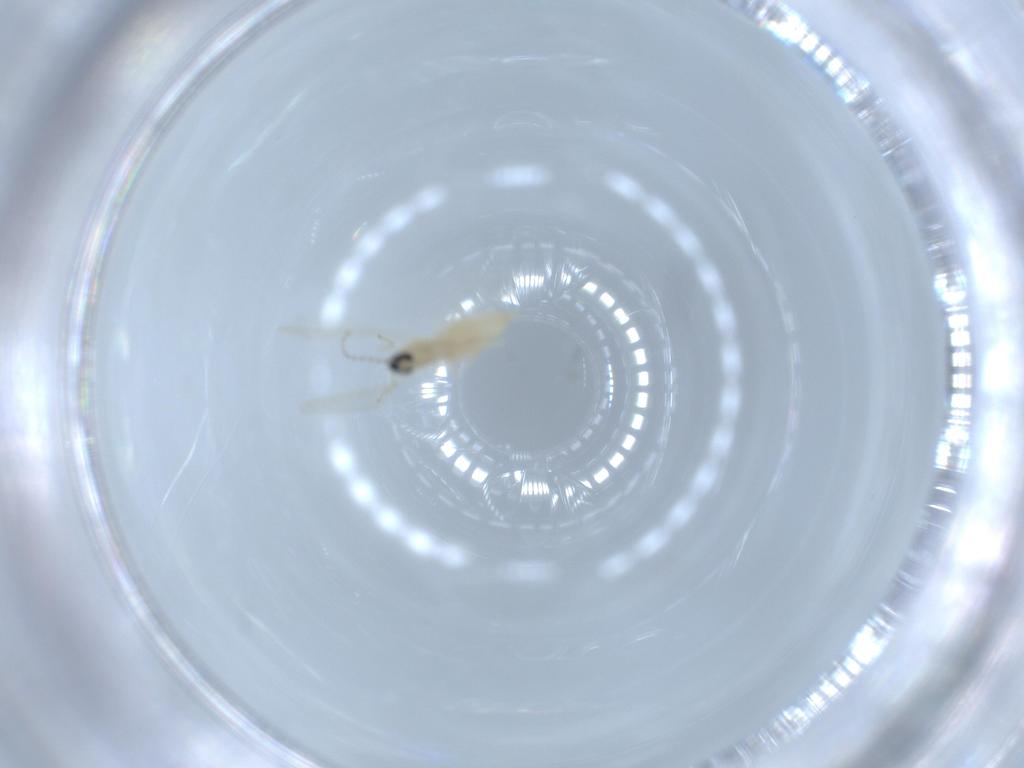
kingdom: Animalia
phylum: Arthropoda
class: Insecta
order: Diptera
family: Cecidomyiidae
